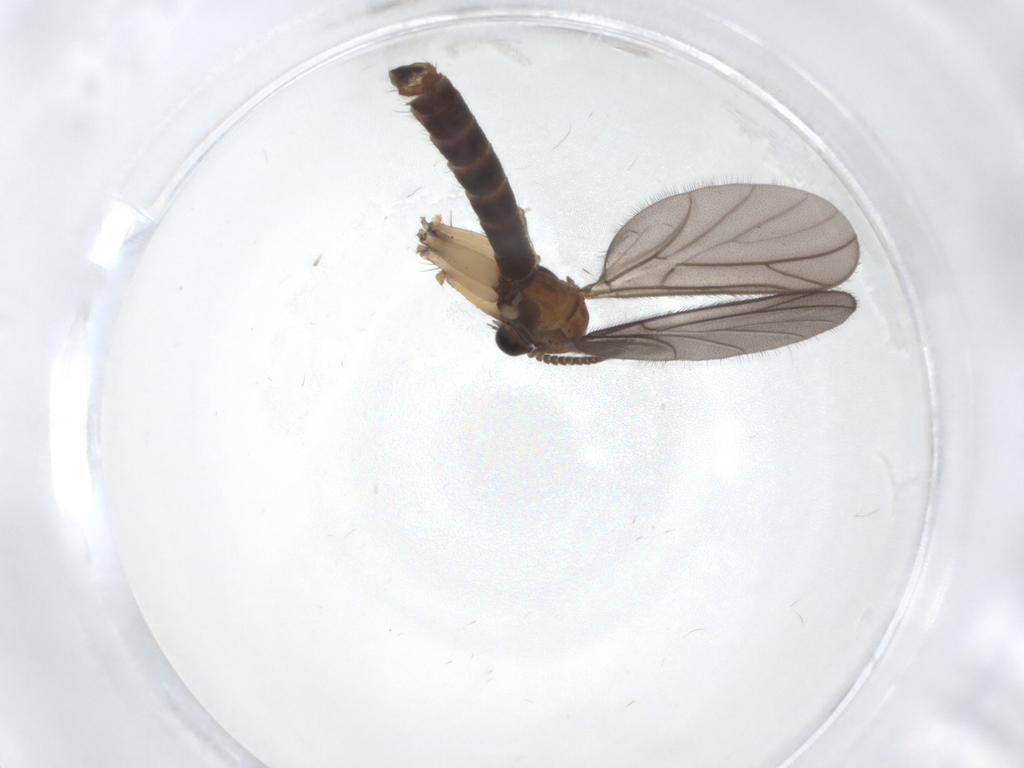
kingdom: Animalia
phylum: Arthropoda
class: Insecta
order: Diptera
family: Ditomyiidae
